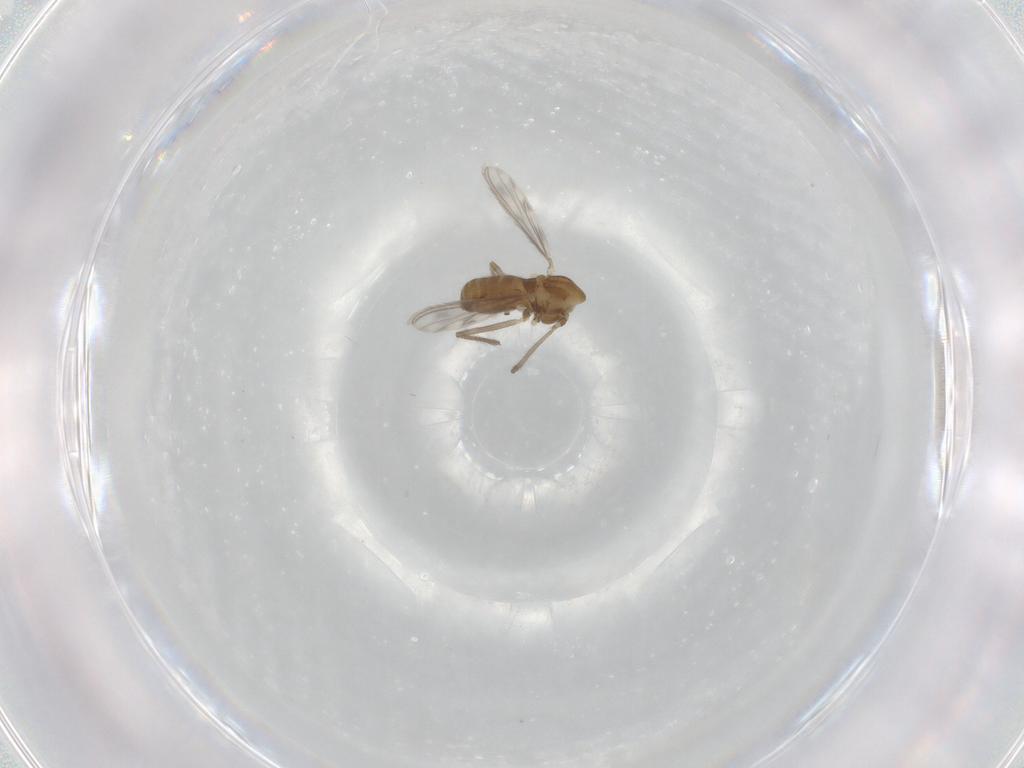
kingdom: Animalia
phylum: Arthropoda
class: Insecta
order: Diptera
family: Chironomidae
